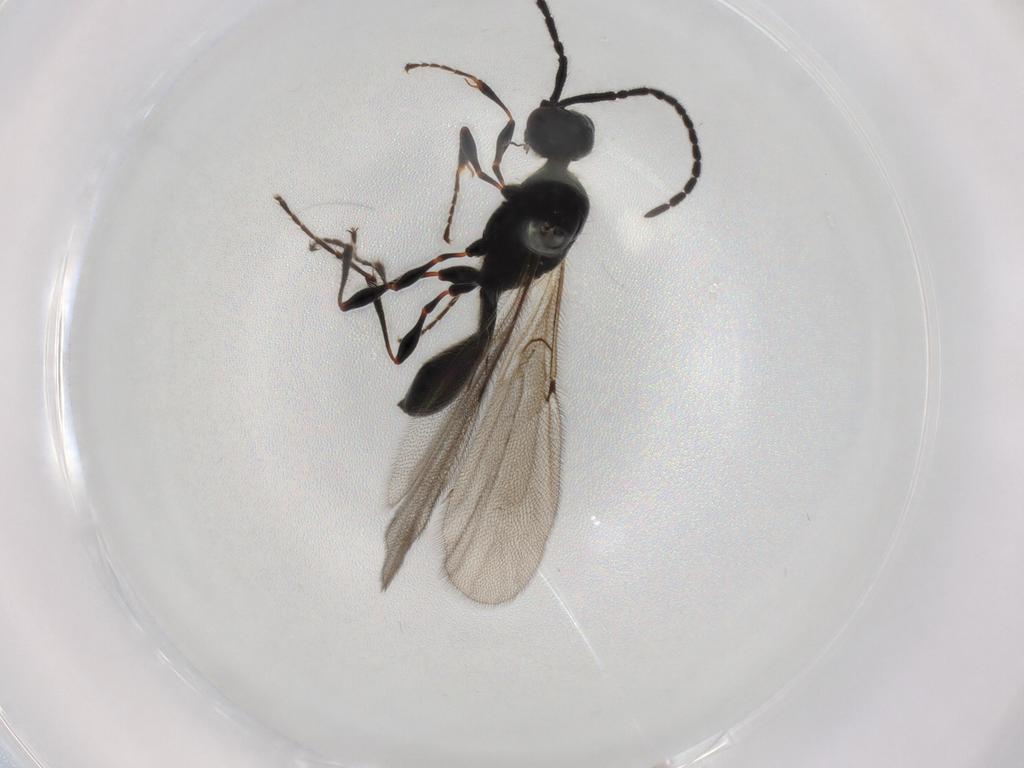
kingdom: Animalia
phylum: Arthropoda
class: Insecta
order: Hymenoptera
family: Diapriidae
